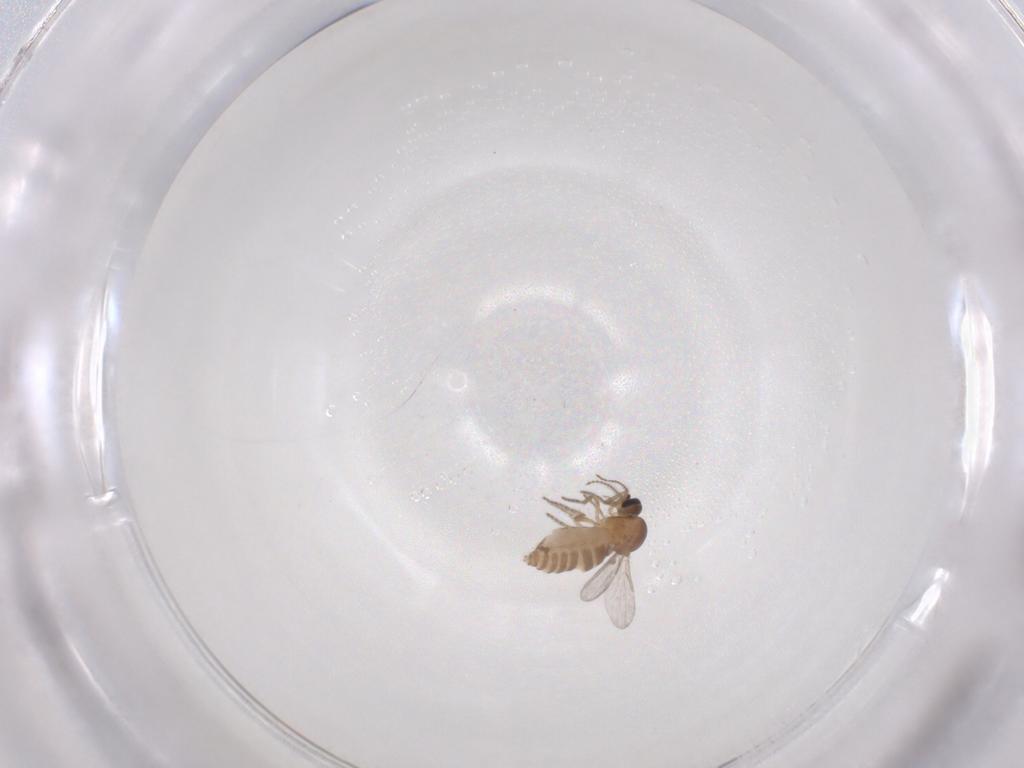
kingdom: Animalia
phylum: Arthropoda
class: Insecta
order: Diptera
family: Ceratopogonidae
